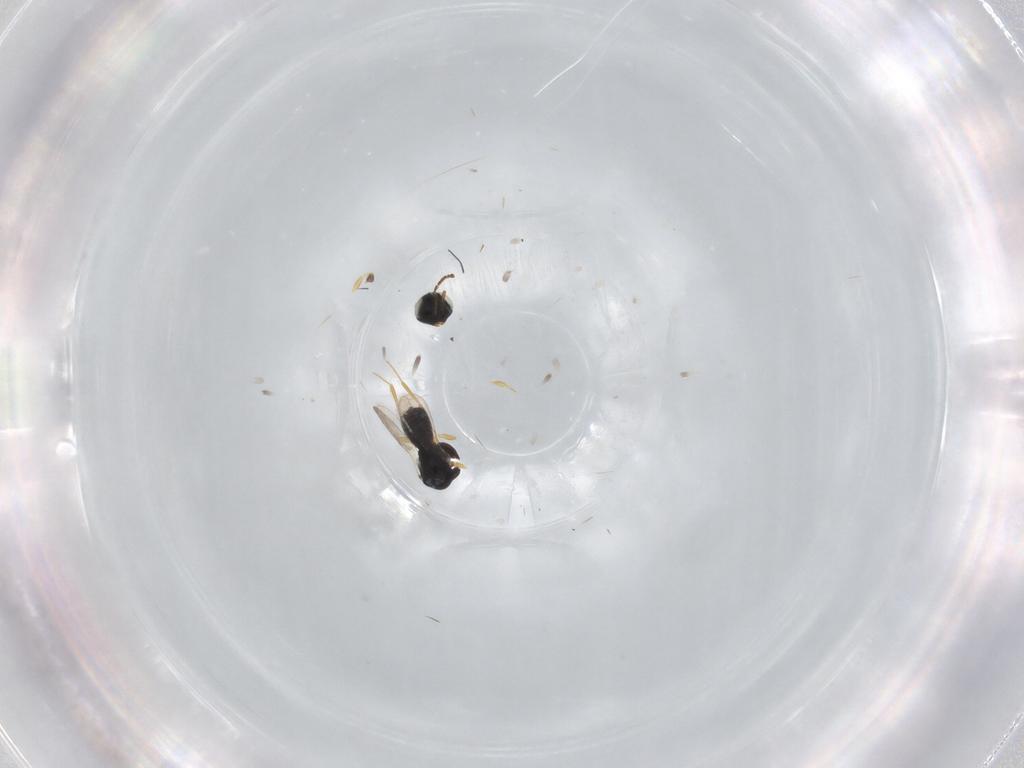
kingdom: Animalia
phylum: Arthropoda
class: Insecta
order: Hymenoptera
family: Scelionidae
